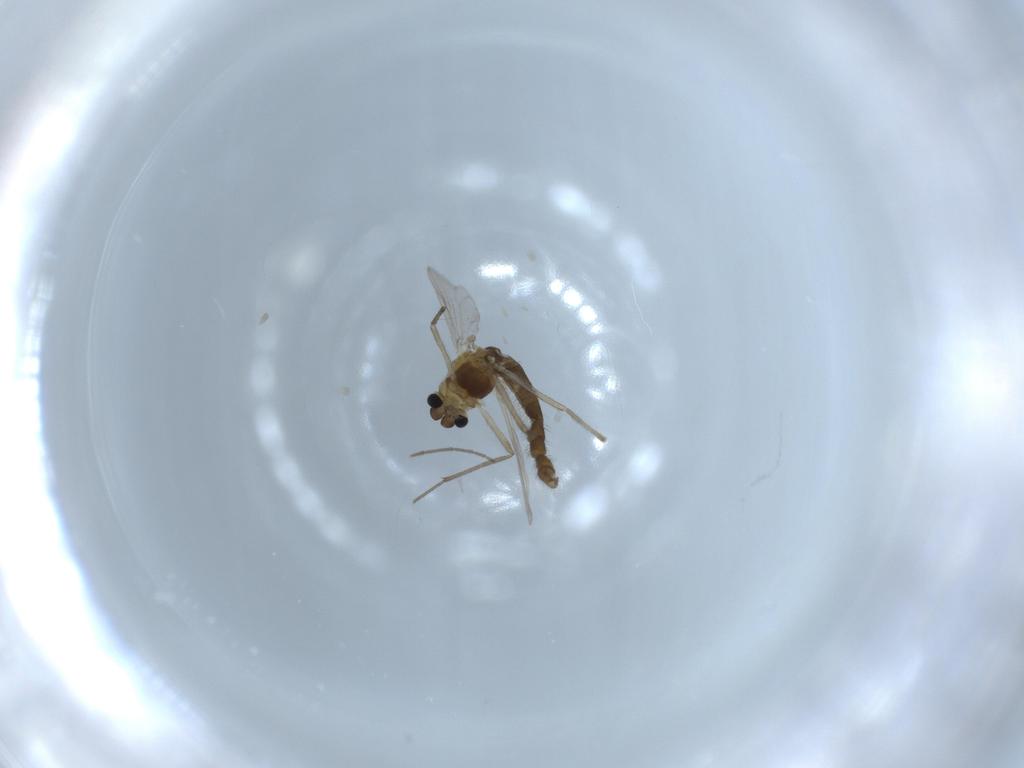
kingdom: Animalia
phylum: Arthropoda
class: Insecta
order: Diptera
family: Chironomidae
